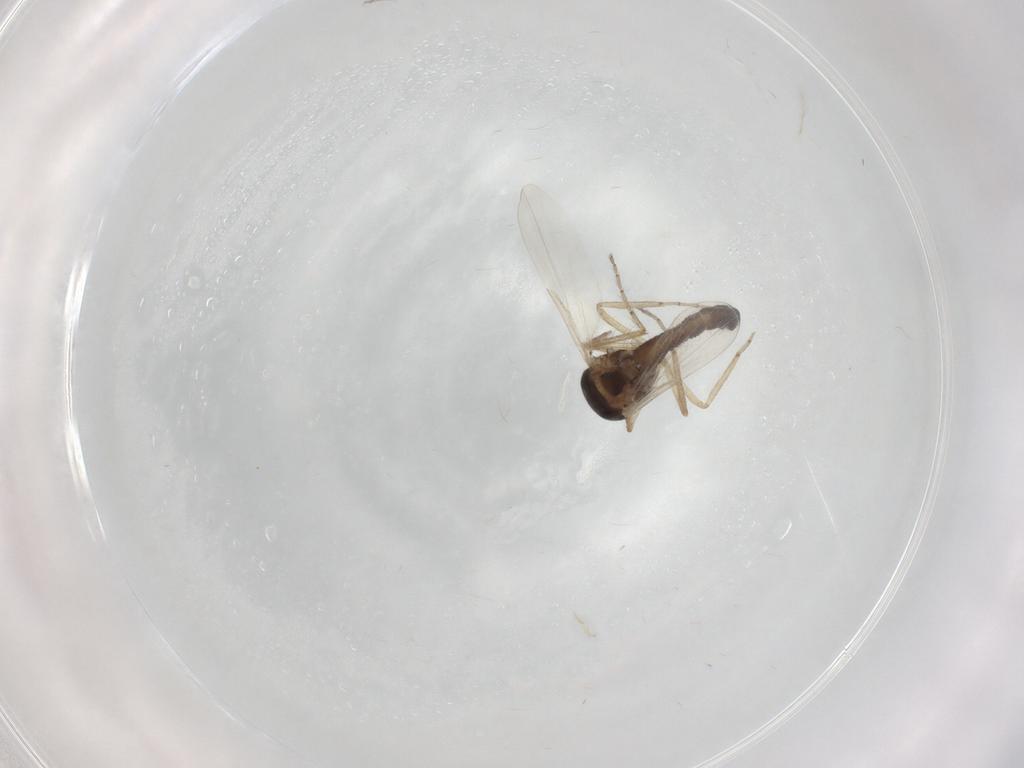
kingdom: Animalia
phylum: Arthropoda
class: Insecta
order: Diptera
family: Ceratopogonidae
